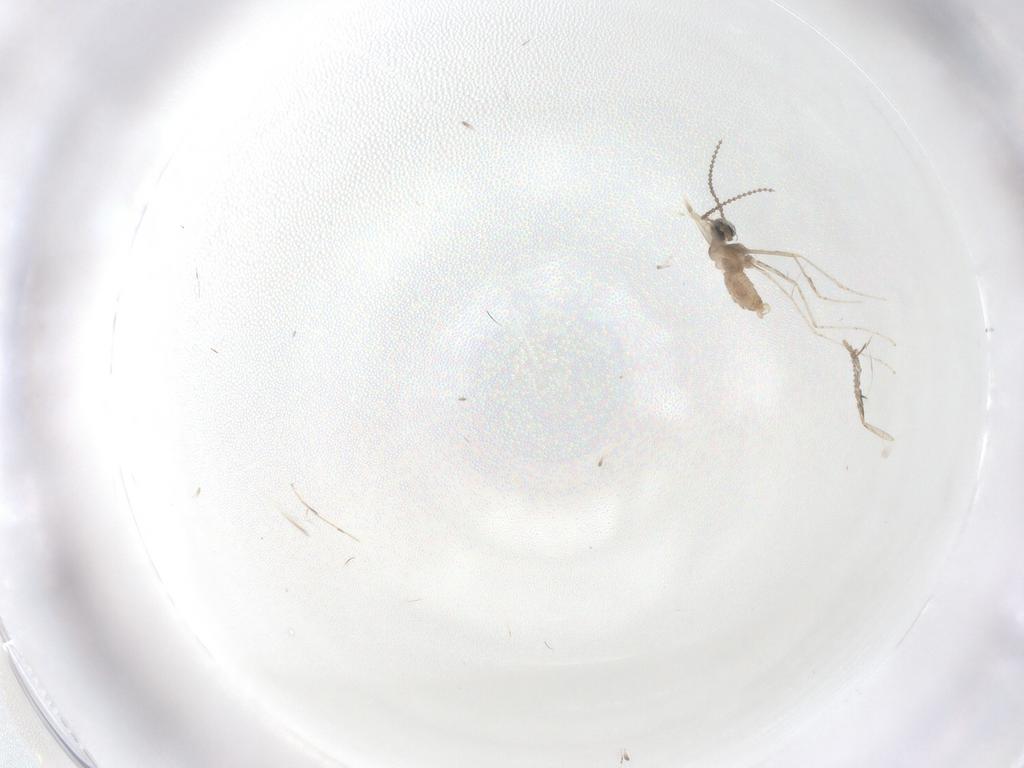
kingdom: Animalia
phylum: Arthropoda
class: Insecta
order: Diptera
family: Cecidomyiidae
